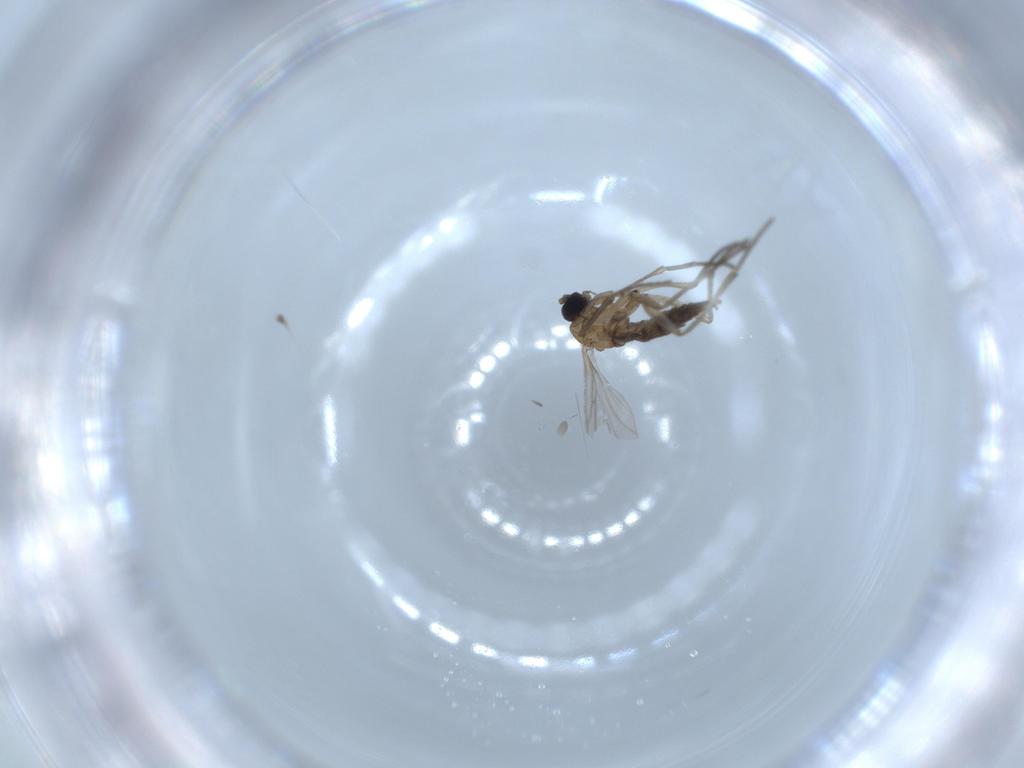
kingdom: Animalia
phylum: Arthropoda
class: Insecta
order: Diptera
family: Sciaridae
